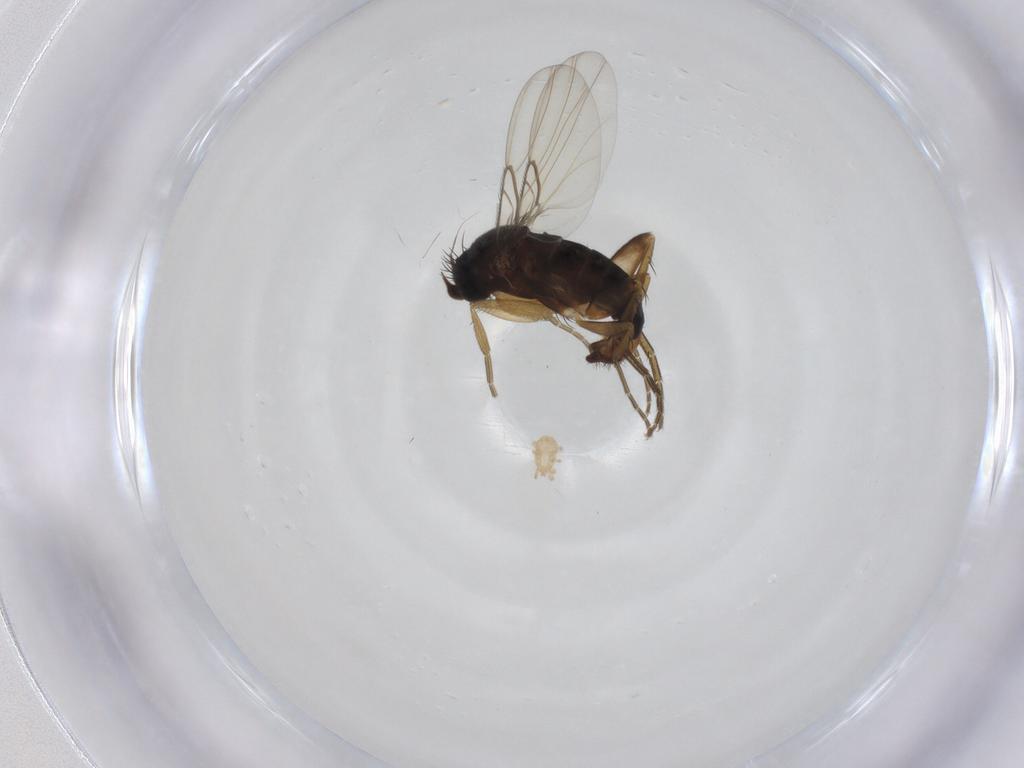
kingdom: Animalia
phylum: Arthropoda
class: Insecta
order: Diptera
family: Phoridae
